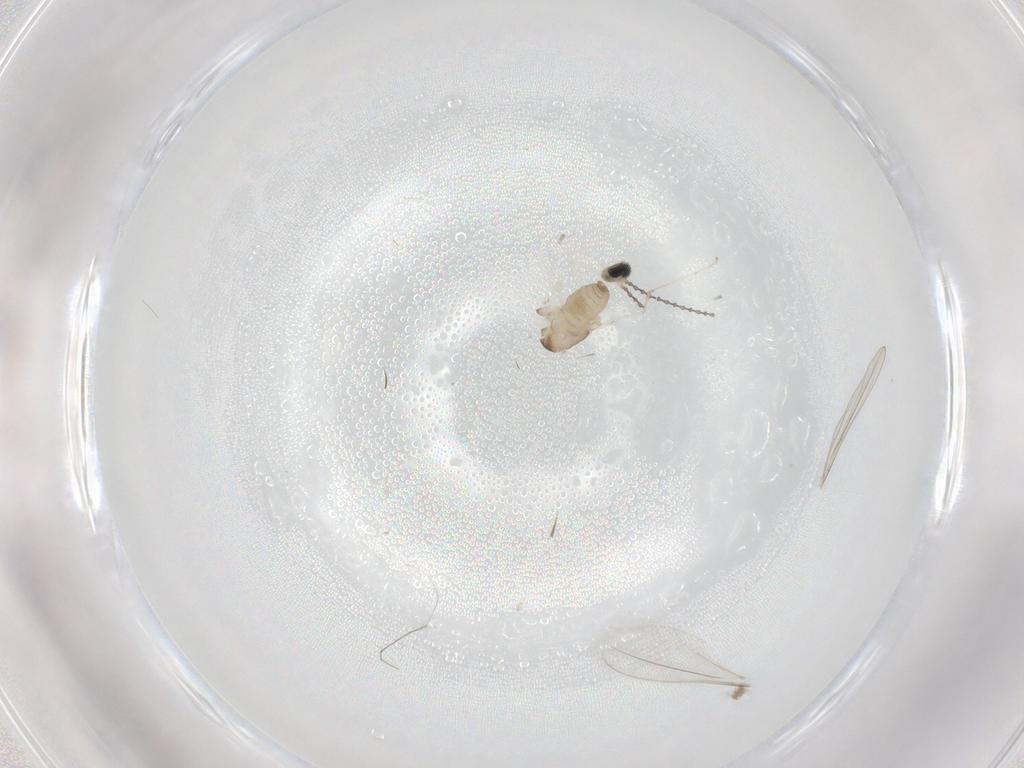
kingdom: Animalia
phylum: Arthropoda
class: Insecta
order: Diptera
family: Cecidomyiidae
